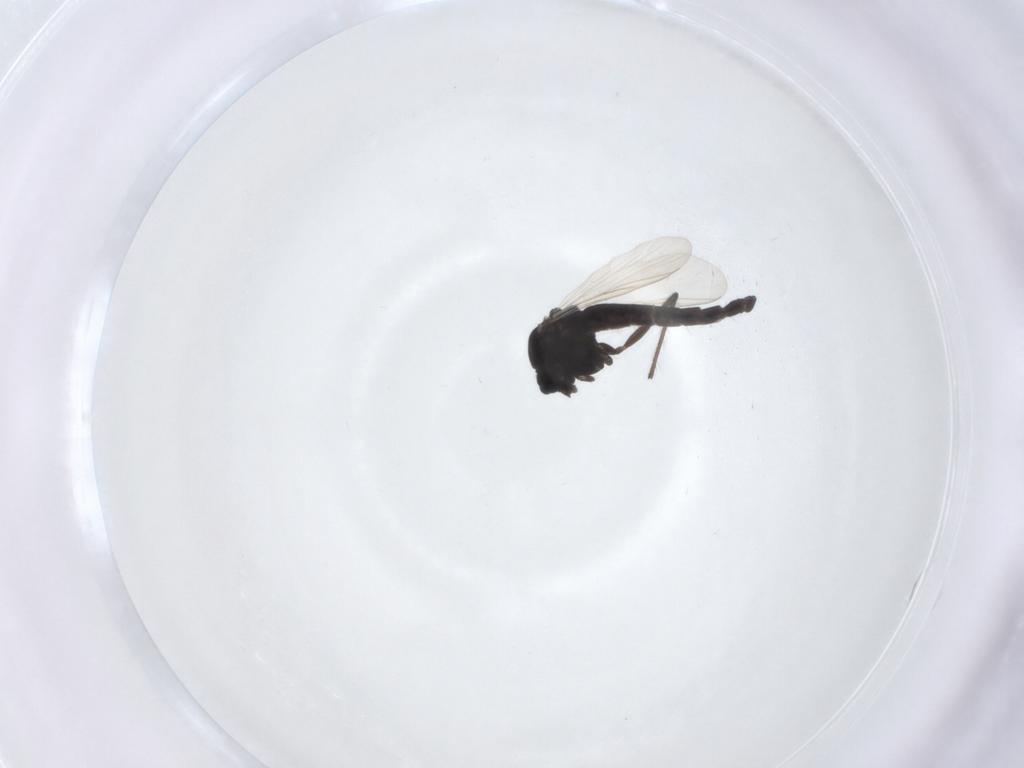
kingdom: Animalia
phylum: Arthropoda
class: Insecta
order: Diptera
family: Chironomidae
